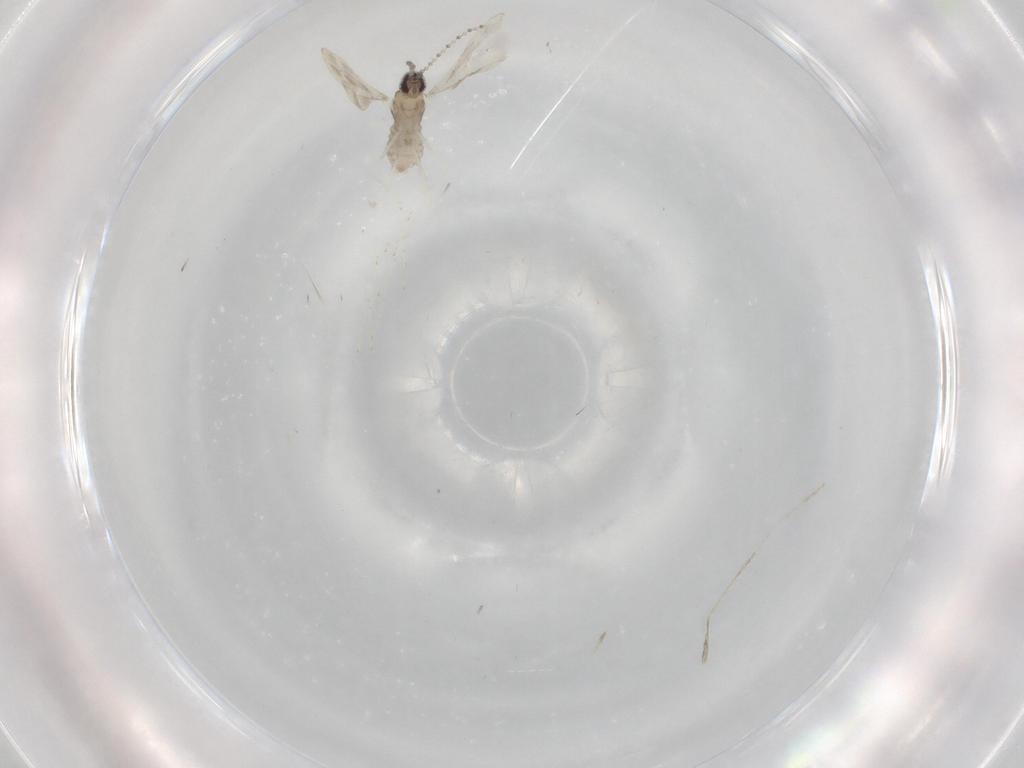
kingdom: Animalia
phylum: Arthropoda
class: Insecta
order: Diptera
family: Cecidomyiidae
